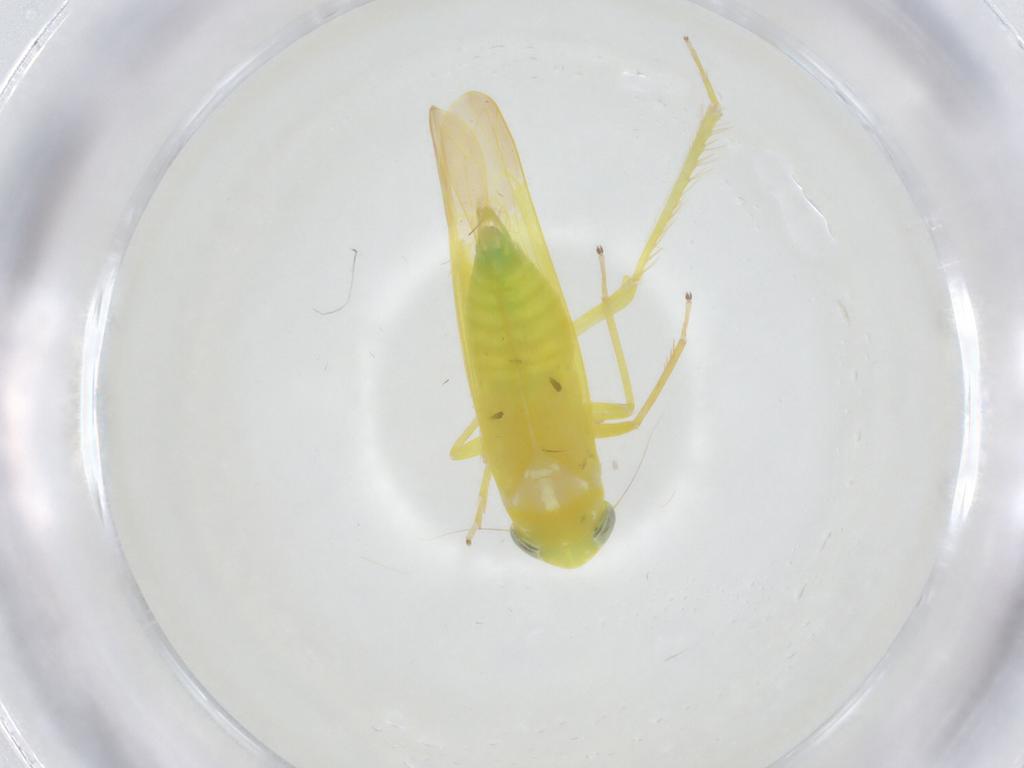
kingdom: Animalia
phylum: Arthropoda
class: Insecta
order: Hemiptera
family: Cicadellidae
